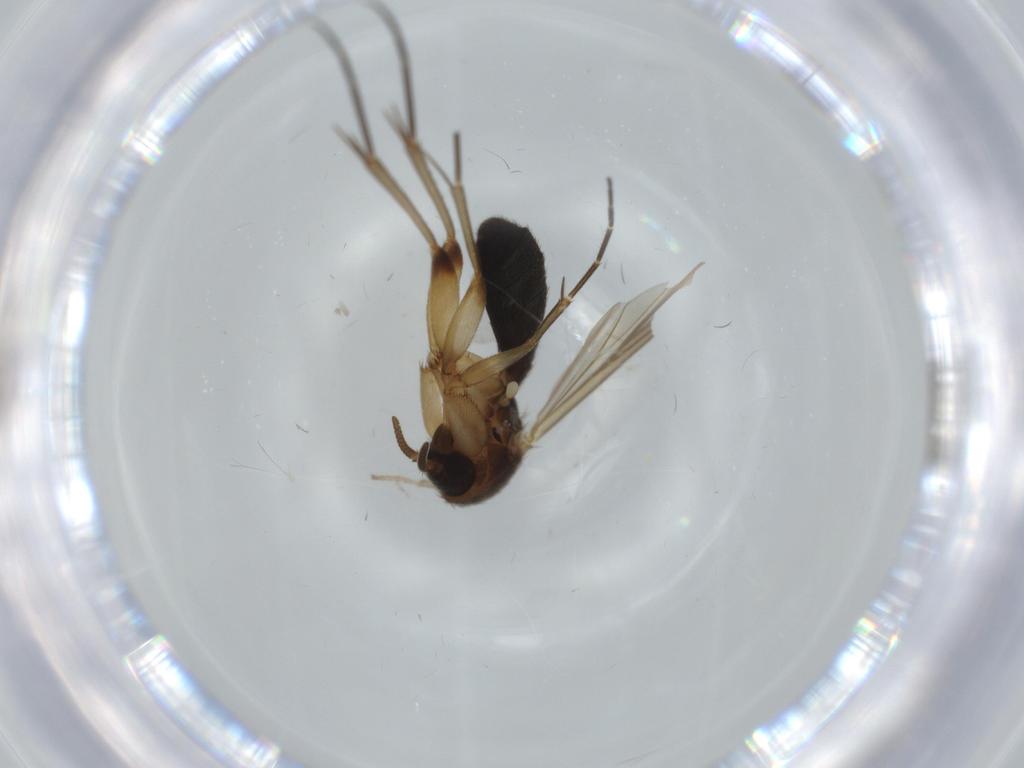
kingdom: Animalia
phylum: Arthropoda
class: Insecta
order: Diptera
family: Mycetophilidae
